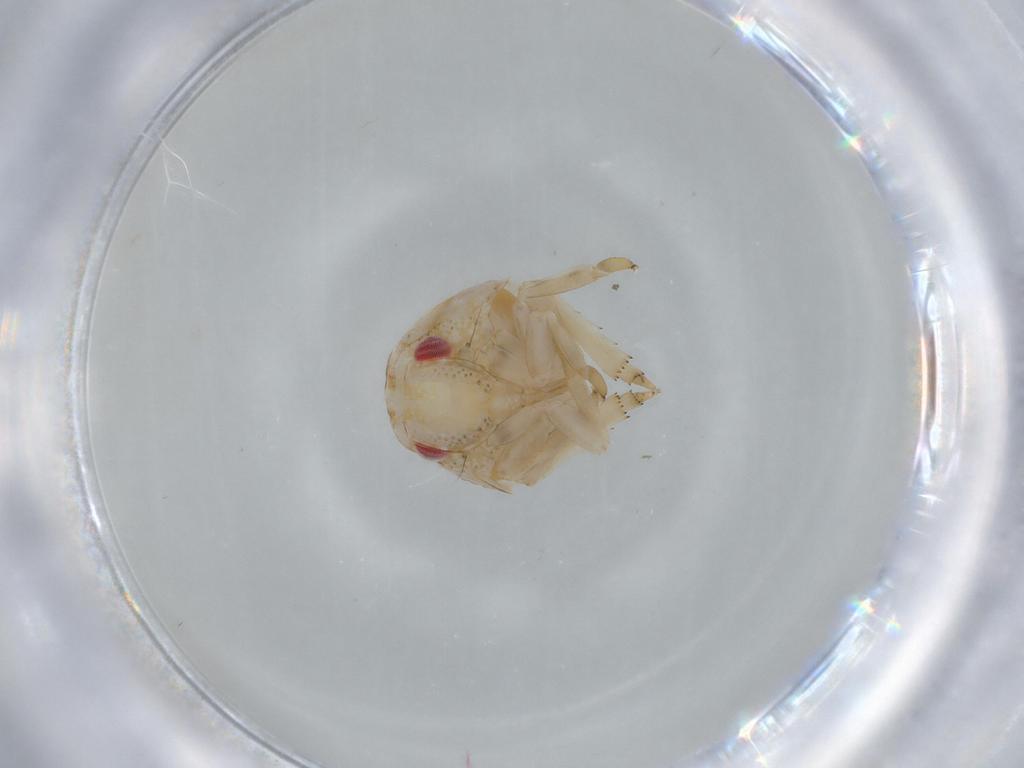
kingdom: Animalia
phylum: Arthropoda
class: Insecta
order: Hemiptera
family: Acanaloniidae
